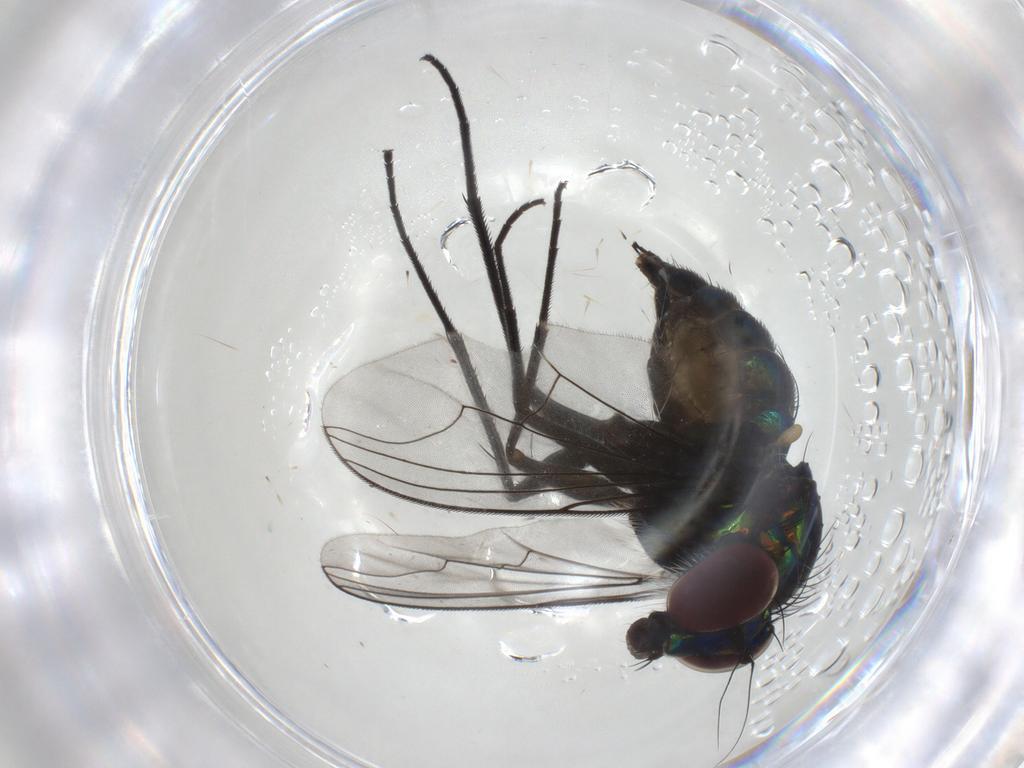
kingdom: Animalia
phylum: Arthropoda
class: Insecta
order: Diptera
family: Dolichopodidae
